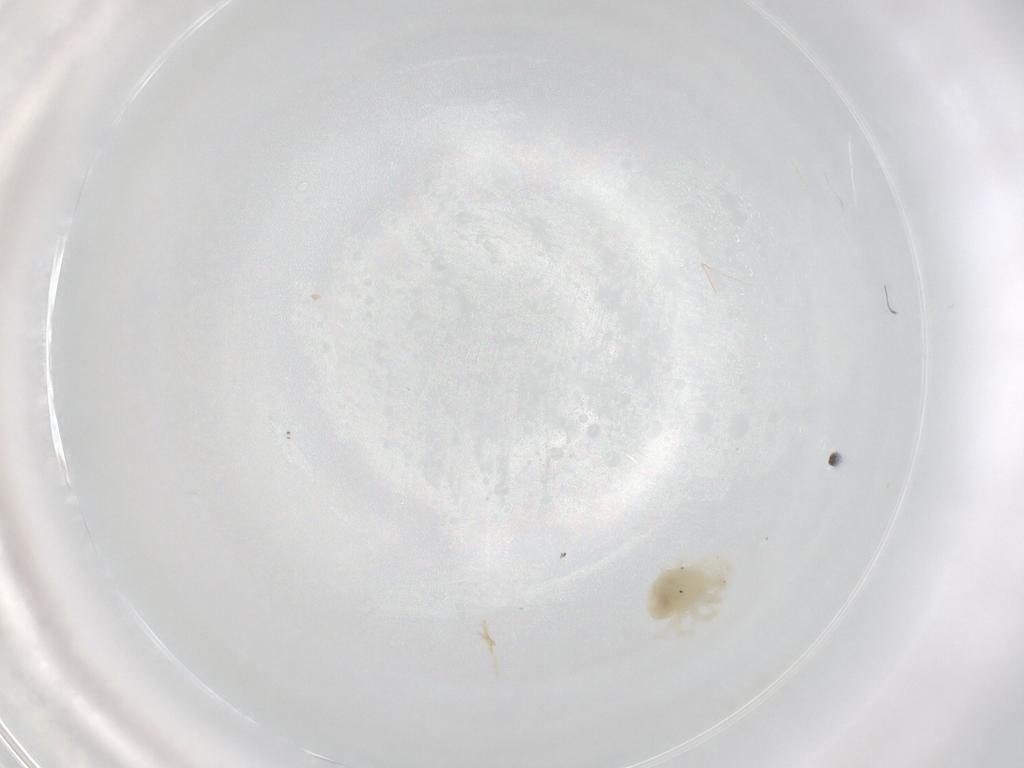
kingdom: Animalia
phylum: Arthropoda
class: Arachnida
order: Trombidiformes
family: Anystidae
